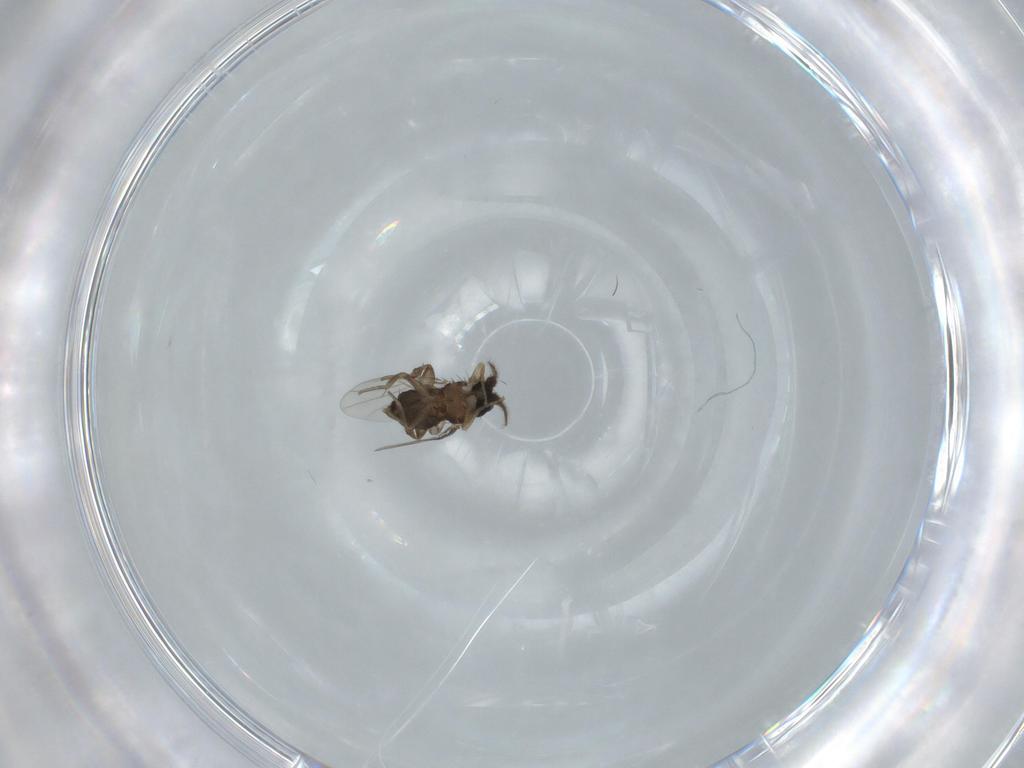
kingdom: Animalia
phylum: Arthropoda
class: Insecta
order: Diptera
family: Phoridae
